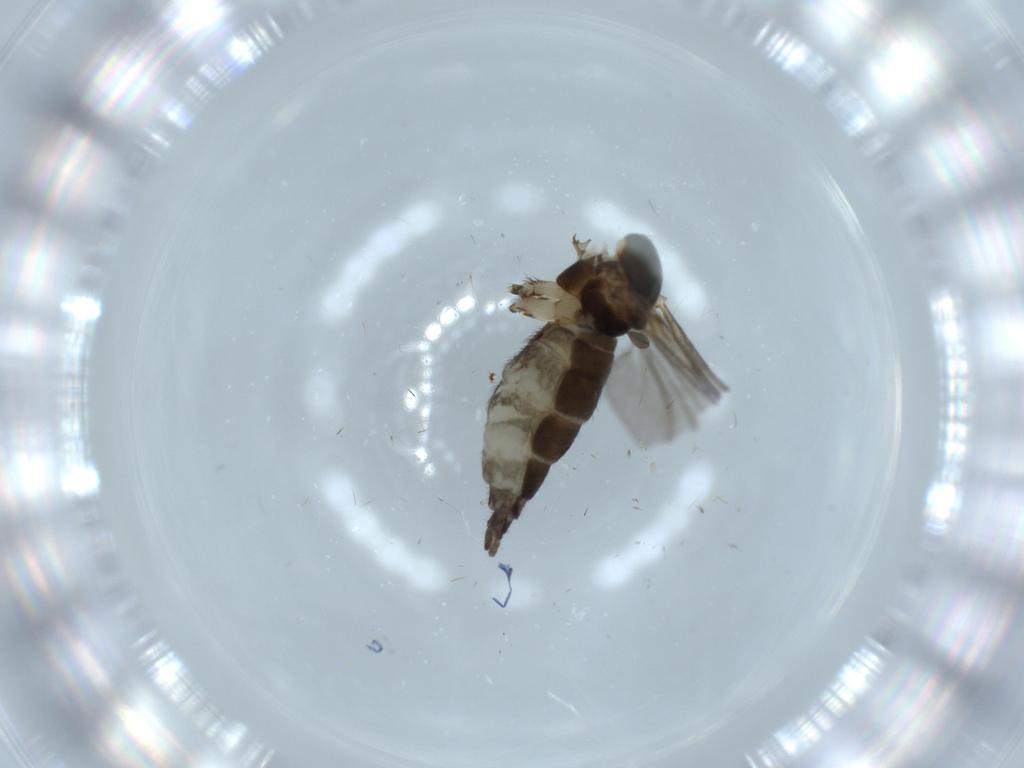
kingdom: Animalia
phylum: Arthropoda
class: Insecta
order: Diptera
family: Sciaridae
